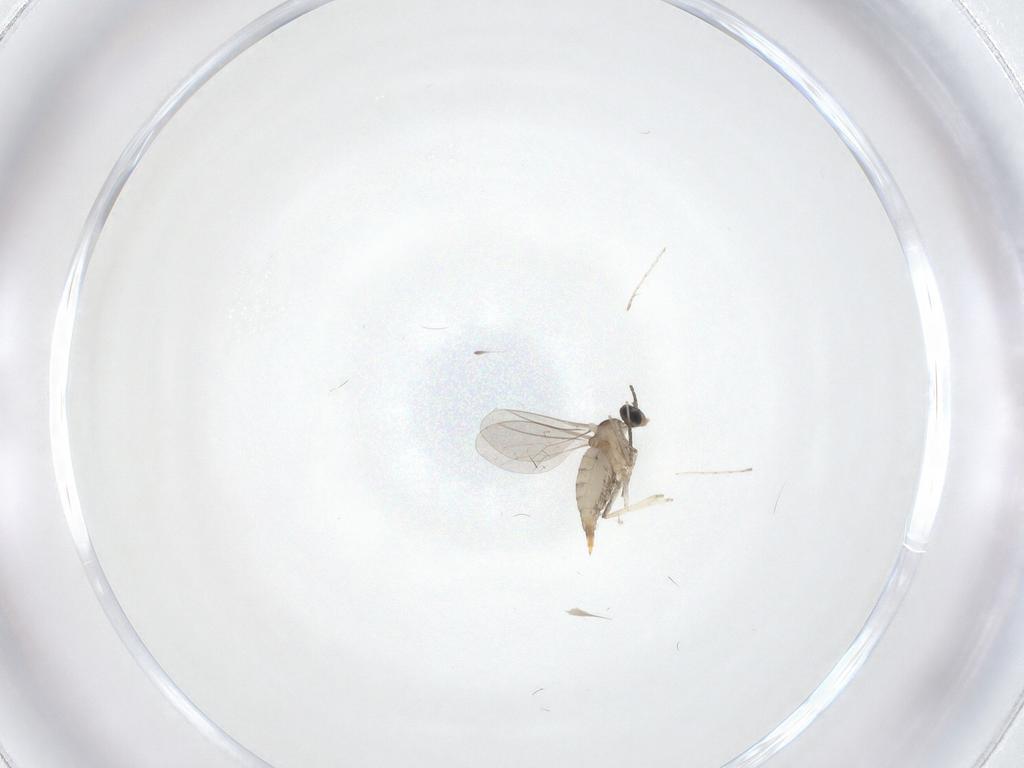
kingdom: Animalia
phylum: Arthropoda
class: Insecta
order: Diptera
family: Cecidomyiidae
